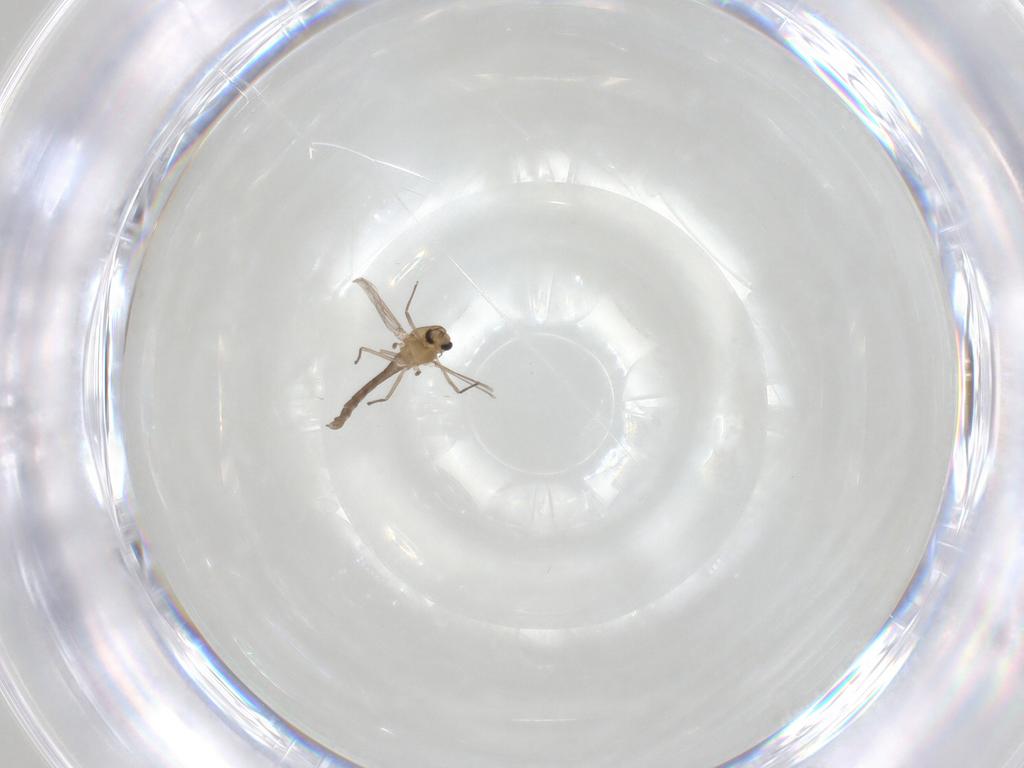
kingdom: Animalia
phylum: Arthropoda
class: Insecta
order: Diptera
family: Chironomidae
